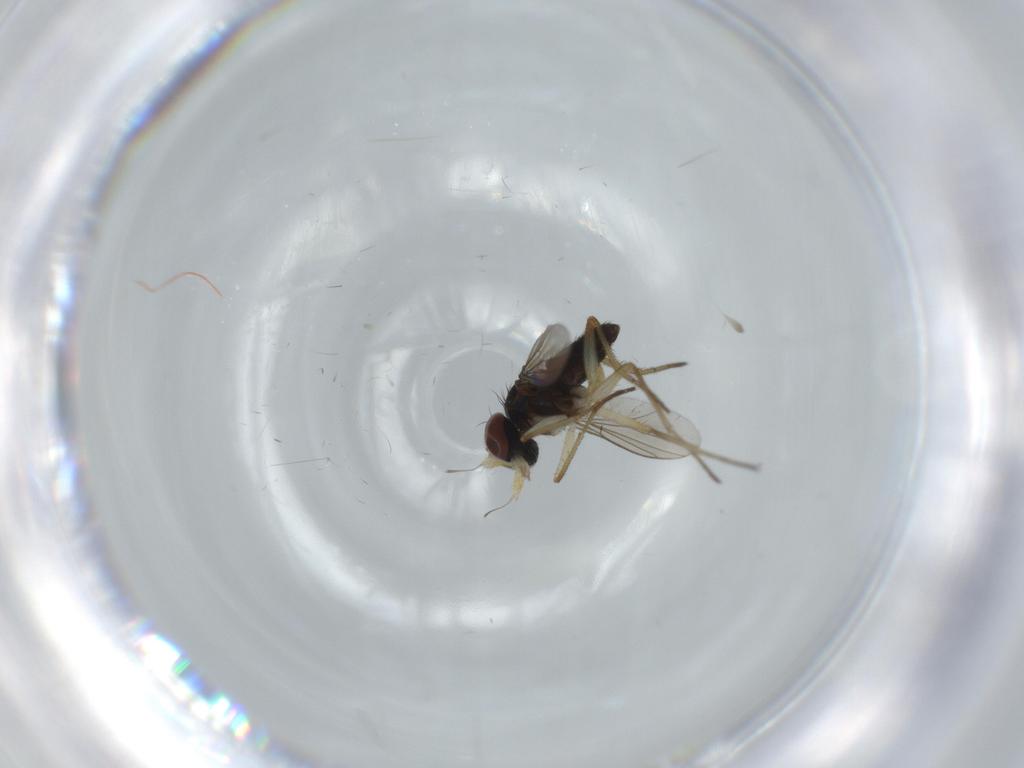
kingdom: Animalia
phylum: Arthropoda
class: Insecta
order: Diptera
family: Dolichopodidae
